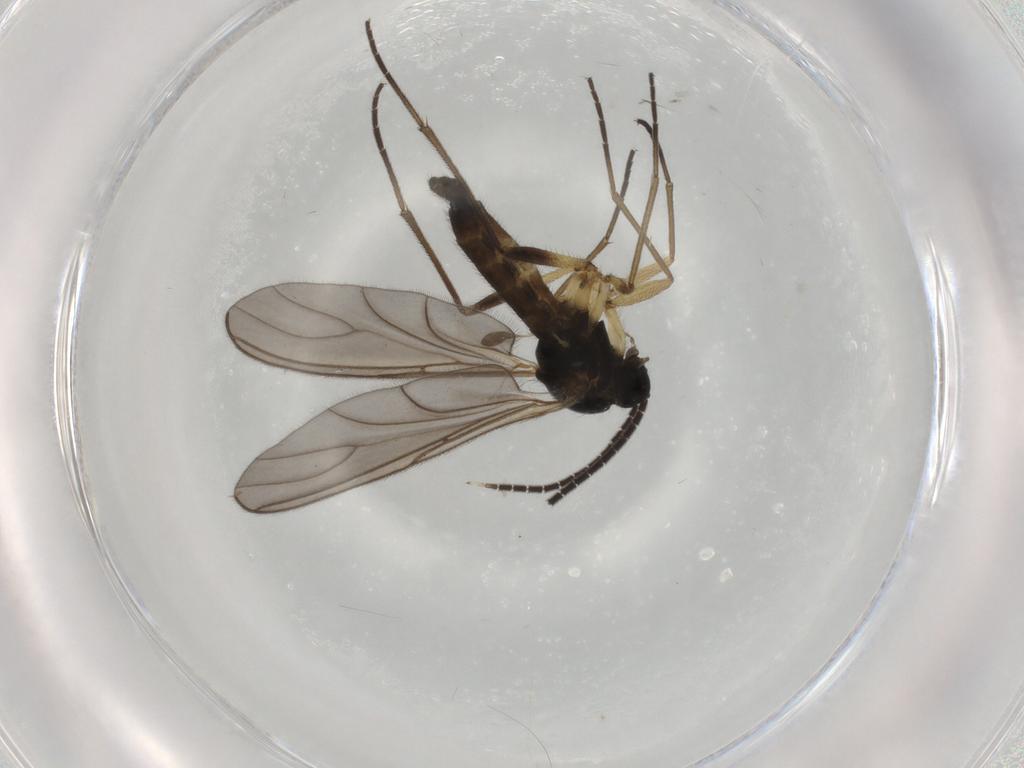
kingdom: Animalia
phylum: Arthropoda
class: Insecta
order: Diptera
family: Sciaridae
